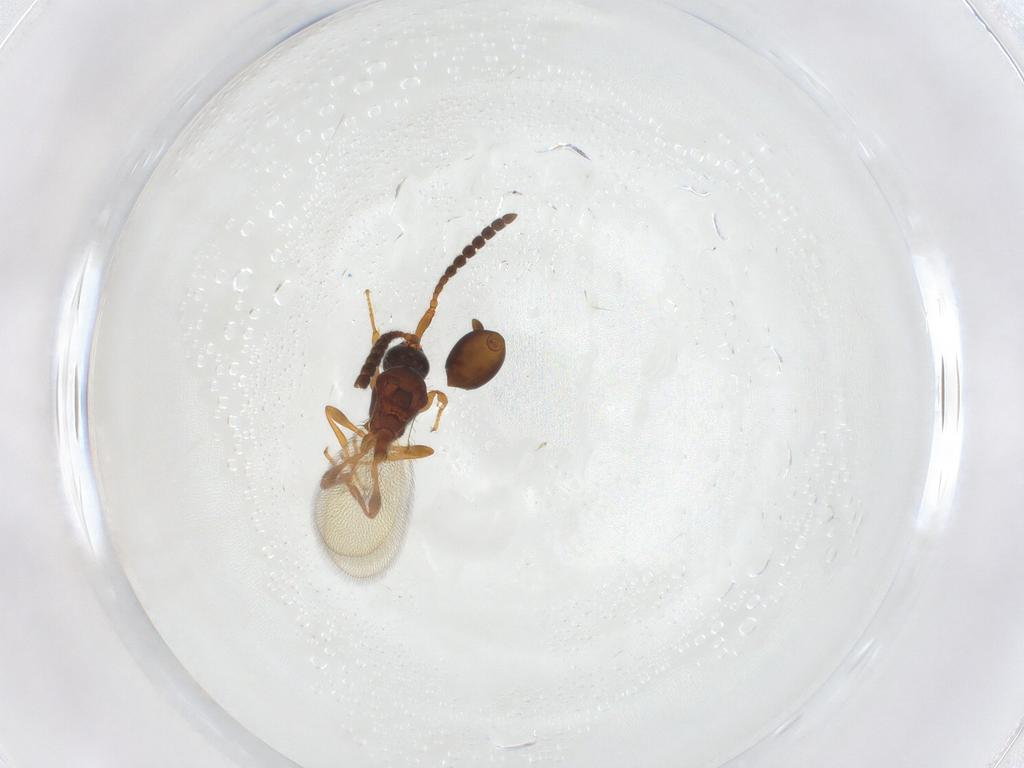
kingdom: Animalia
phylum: Arthropoda
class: Insecta
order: Hymenoptera
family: Diapriidae
